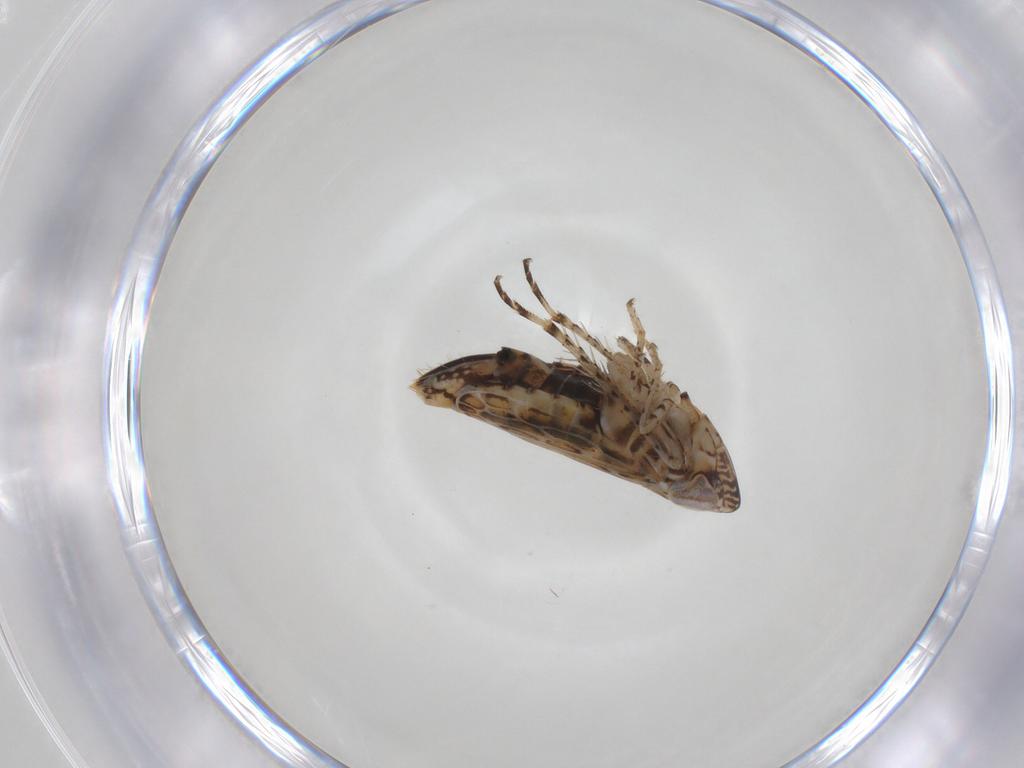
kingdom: Animalia
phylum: Arthropoda
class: Insecta
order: Hemiptera
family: Cicadellidae
